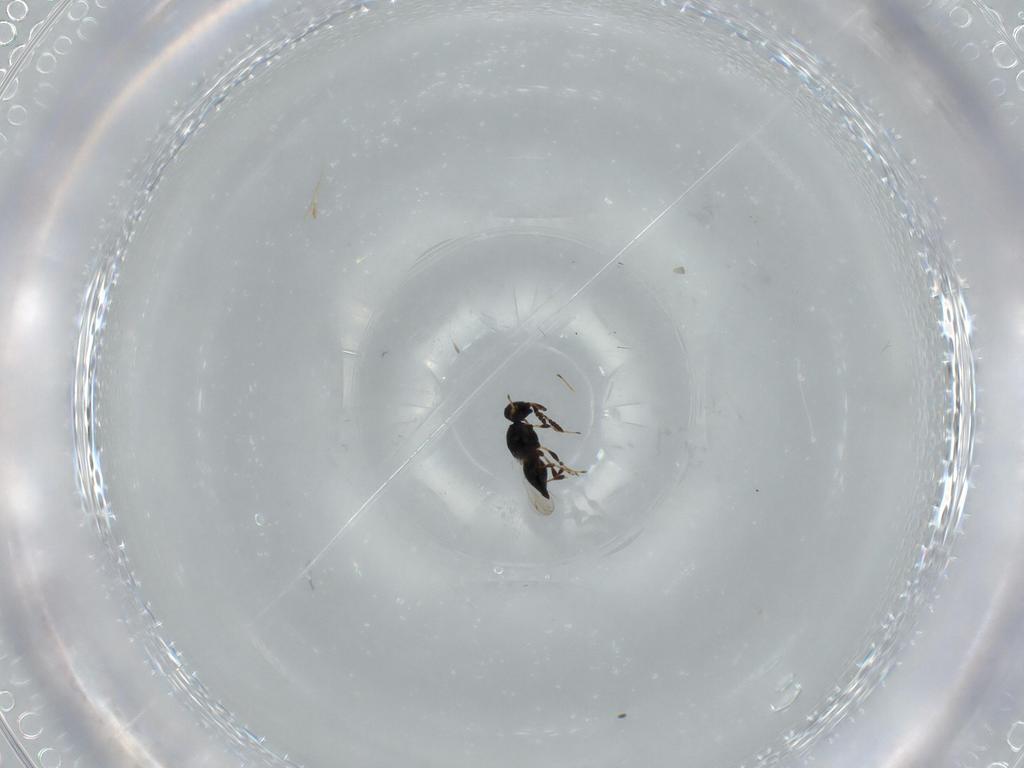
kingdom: Animalia
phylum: Arthropoda
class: Insecta
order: Hymenoptera
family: Platygastridae
